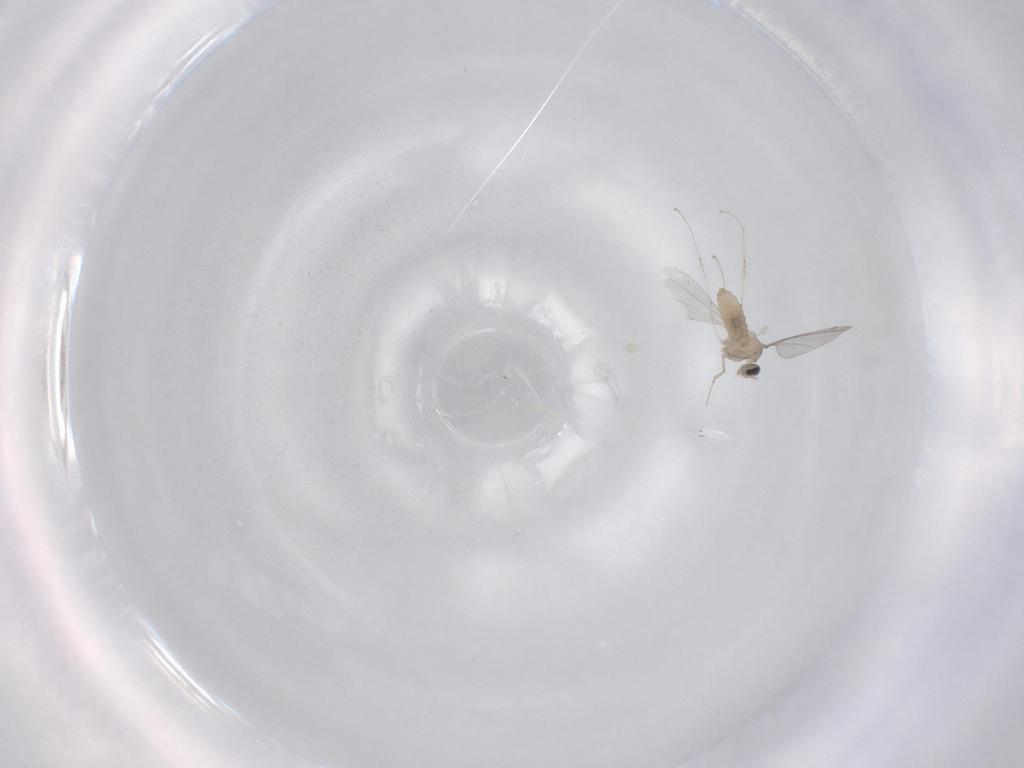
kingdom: Animalia
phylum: Arthropoda
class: Insecta
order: Diptera
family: Cecidomyiidae
